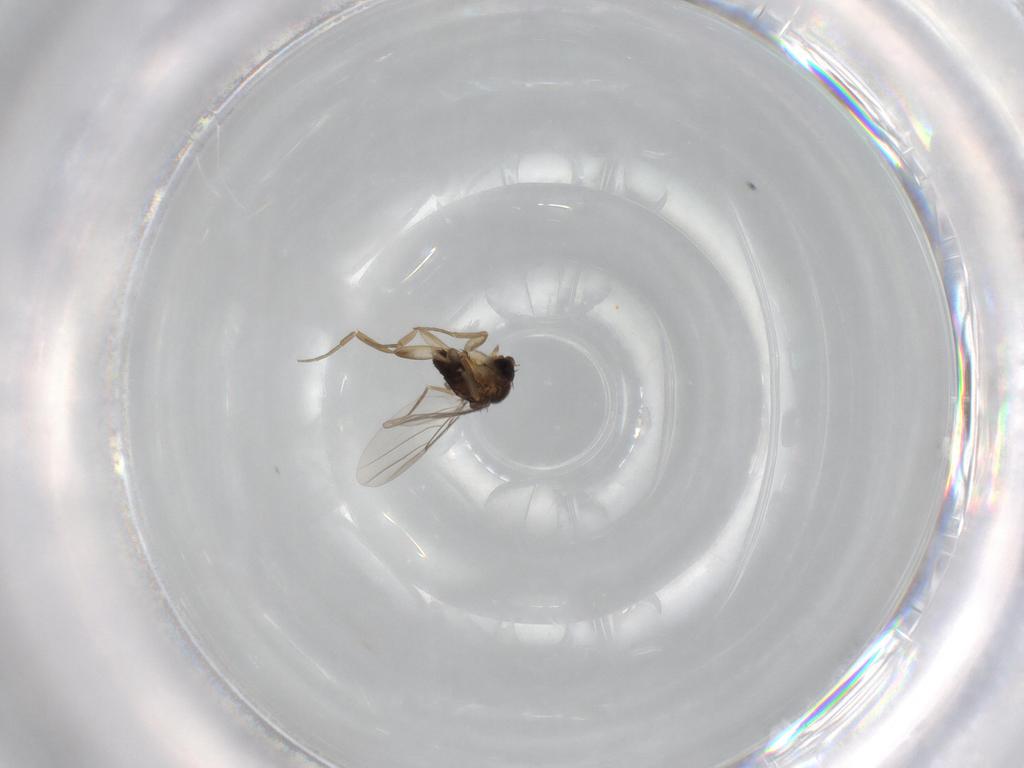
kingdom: Animalia
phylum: Arthropoda
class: Insecta
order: Diptera
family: Phoridae
